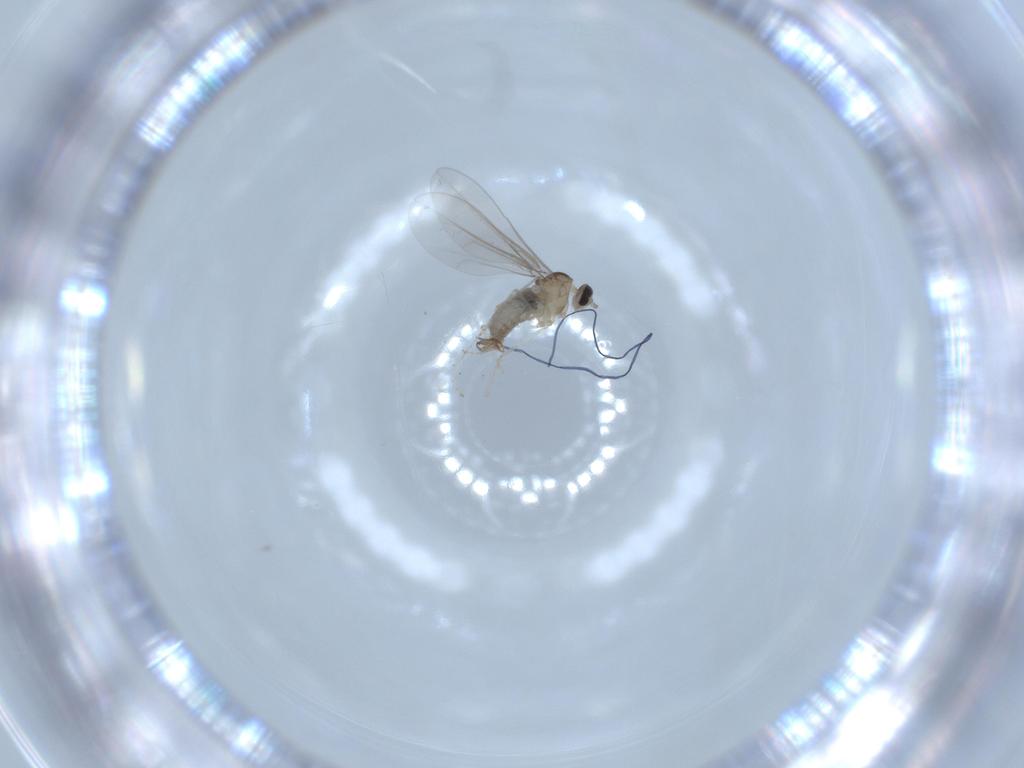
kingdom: Animalia
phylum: Arthropoda
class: Insecta
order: Diptera
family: Cecidomyiidae
